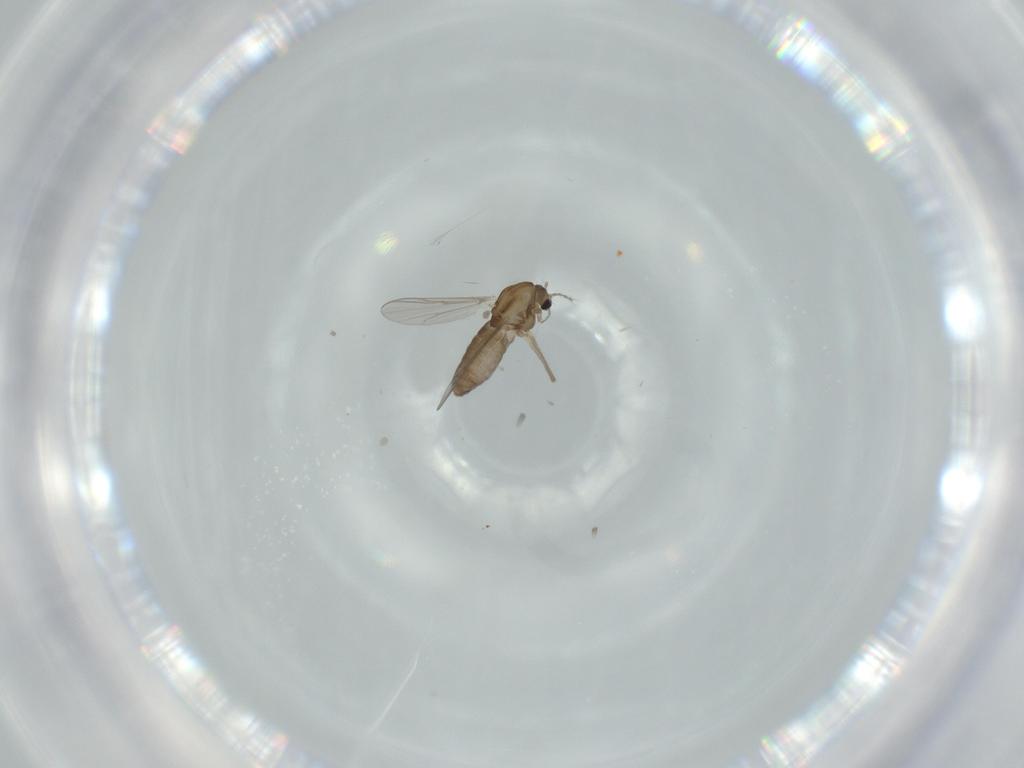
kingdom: Animalia
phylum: Arthropoda
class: Insecta
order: Diptera
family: Chironomidae
